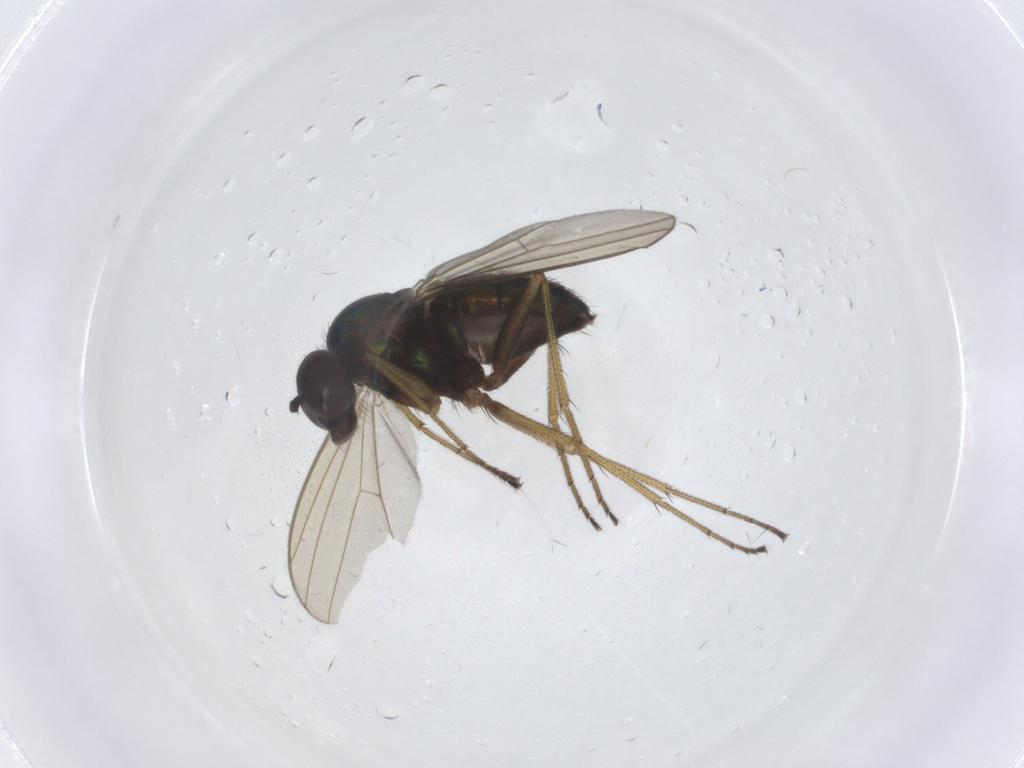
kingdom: Animalia
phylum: Arthropoda
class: Insecta
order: Diptera
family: Dolichopodidae
